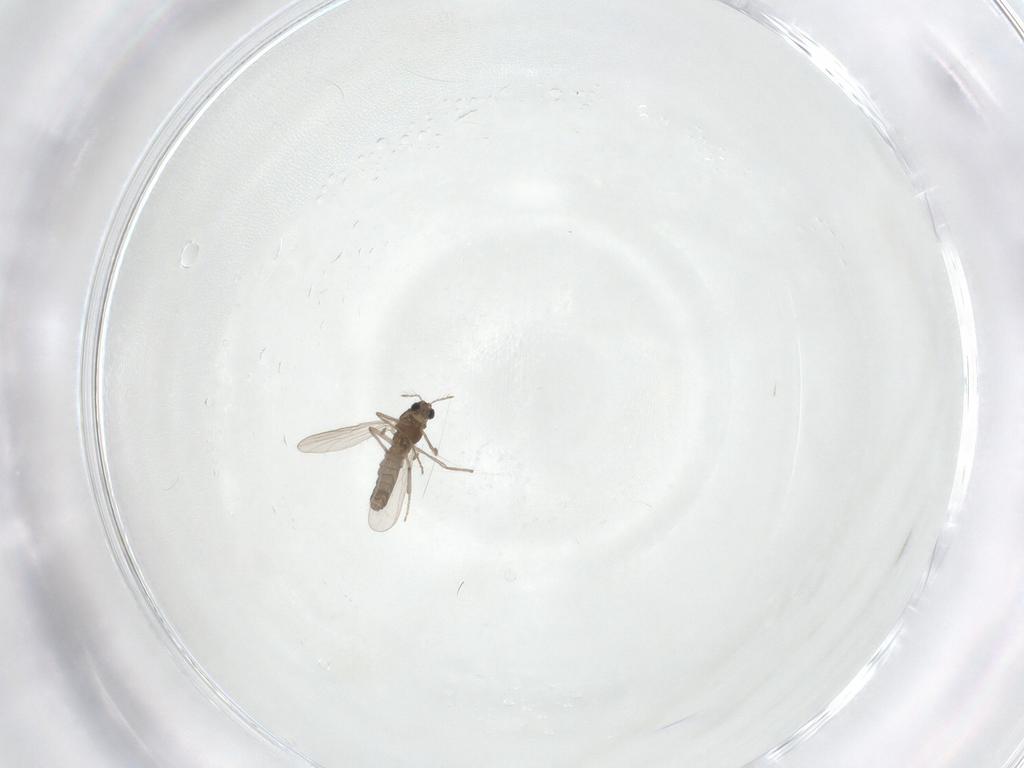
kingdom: Animalia
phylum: Arthropoda
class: Insecta
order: Diptera
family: Chironomidae
